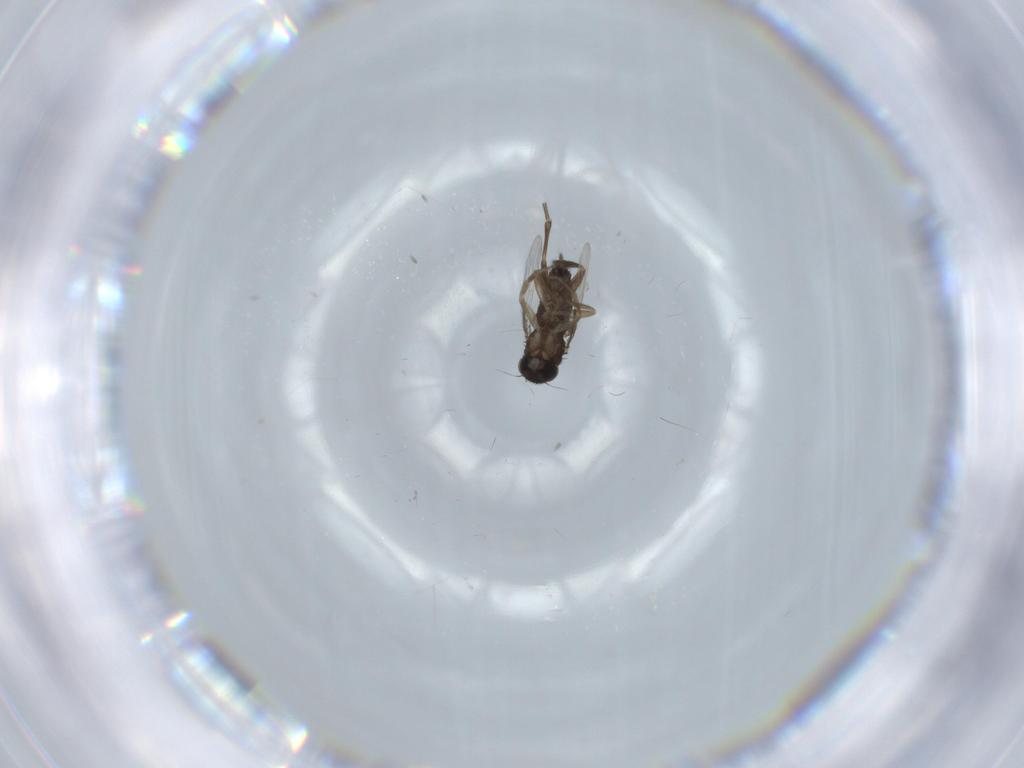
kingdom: Animalia
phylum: Arthropoda
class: Insecta
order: Diptera
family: Phoridae
